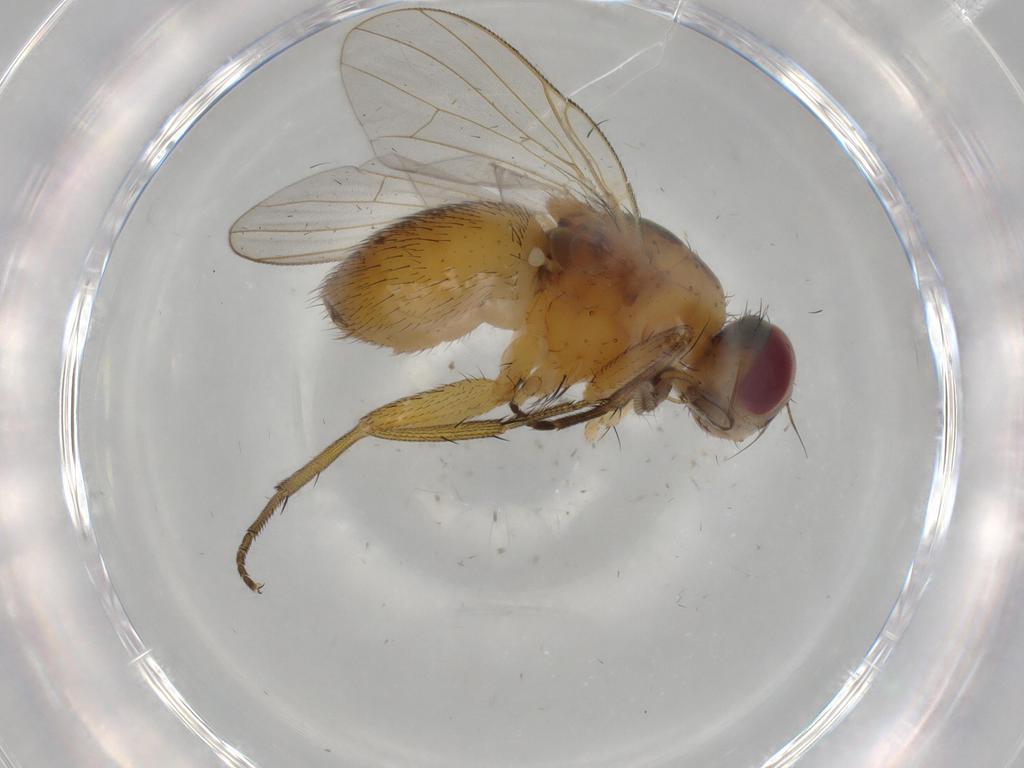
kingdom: Animalia
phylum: Arthropoda
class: Insecta
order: Diptera
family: Muscidae
